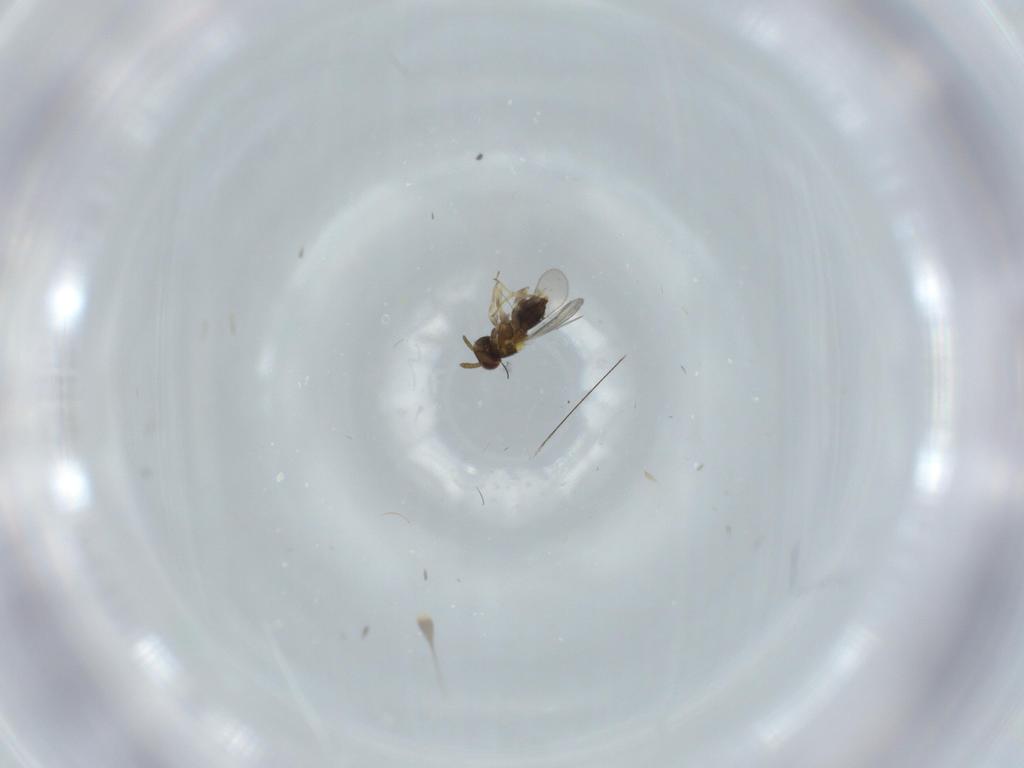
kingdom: Animalia
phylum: Arthropoda
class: Insecta
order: Hymenoptera
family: Aphelinidae
